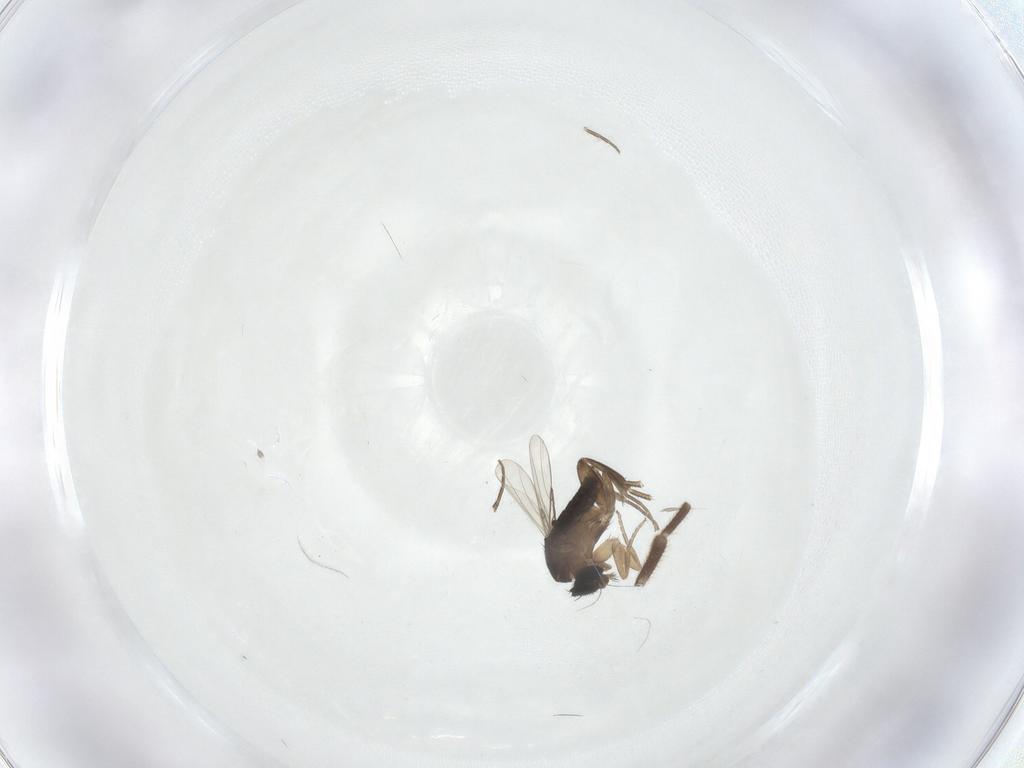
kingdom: Animalia
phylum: Arthropoda
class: Insecta
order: Diptera
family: Phoridae
